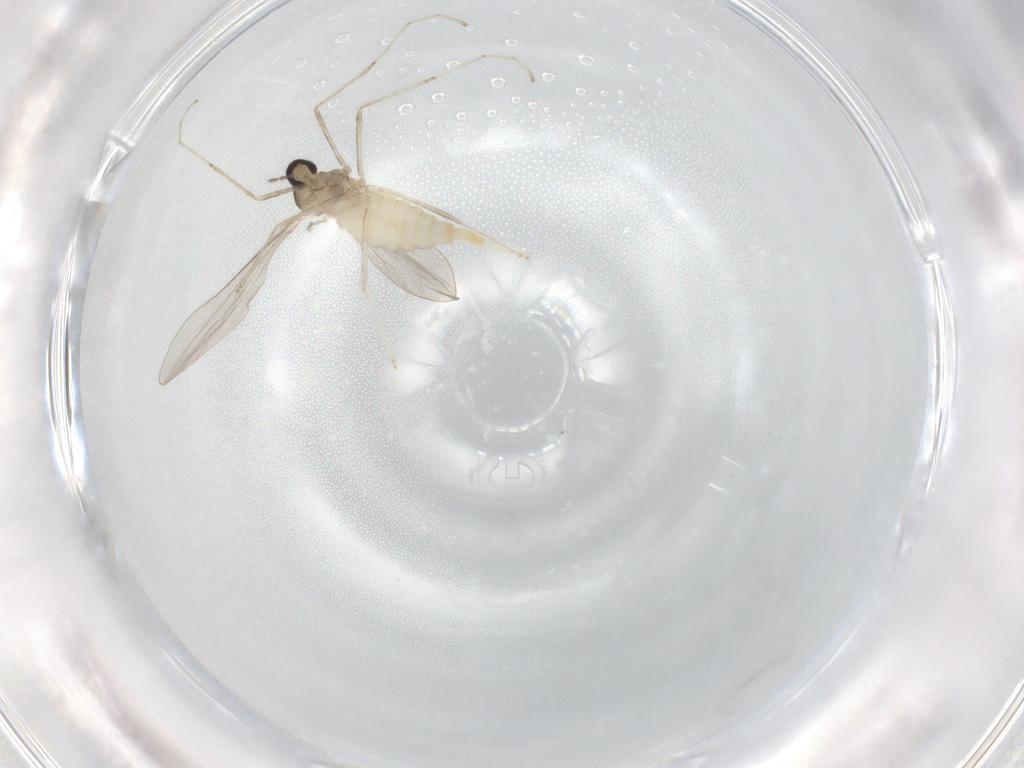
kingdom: Animalia
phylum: Arthropoda
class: Insecta
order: Diptera
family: Cecidomyiidae
